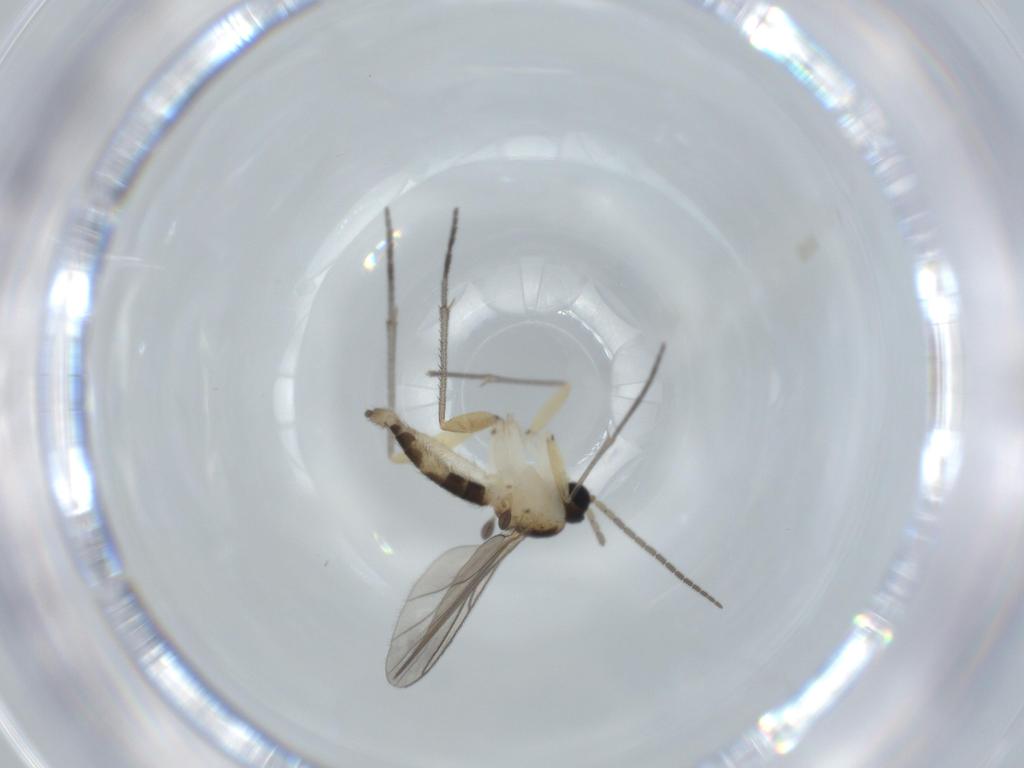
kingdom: Animalia
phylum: Arthropoda
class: Insecta
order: Diptera
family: Sciaridae
